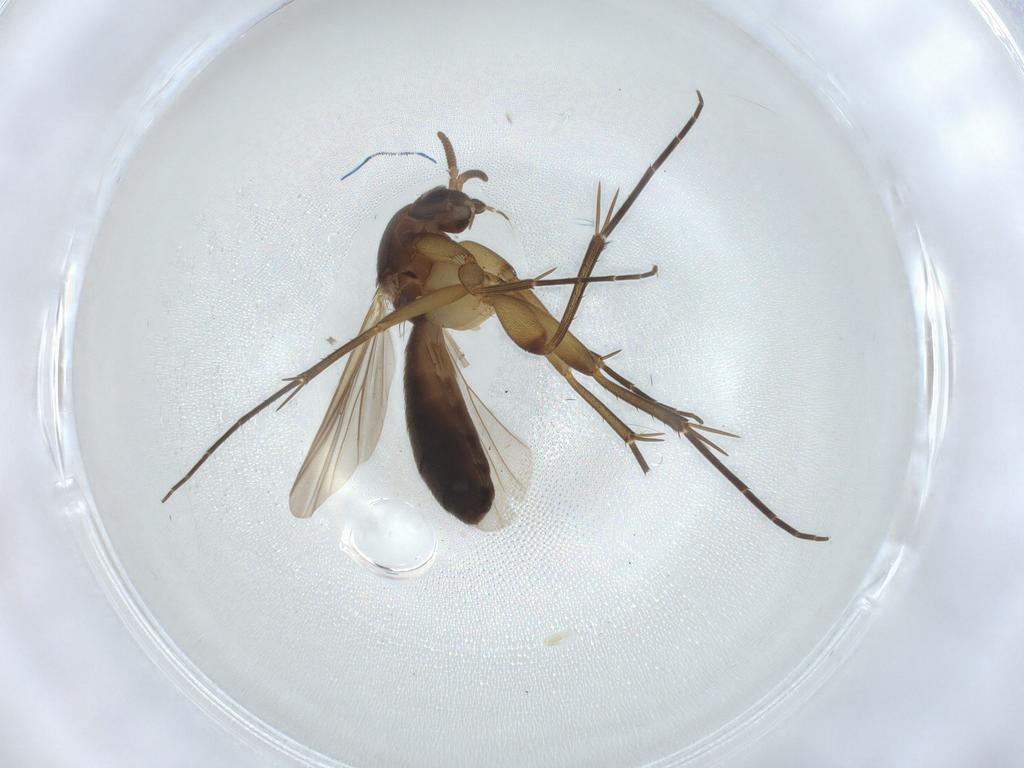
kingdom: Animalia
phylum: Arthropoda
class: Insecta
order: Diptera
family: Mycetophilidae
